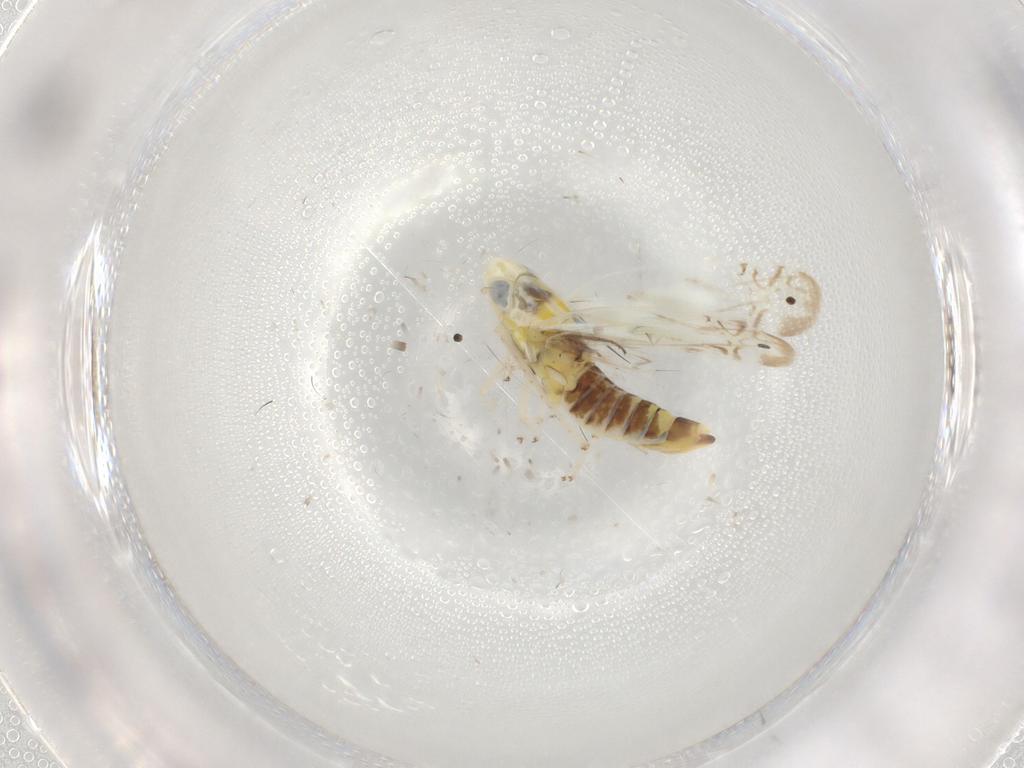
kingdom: Animalia
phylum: Arthropoda
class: Insecta
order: Hemiptera
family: Cicadellidae
